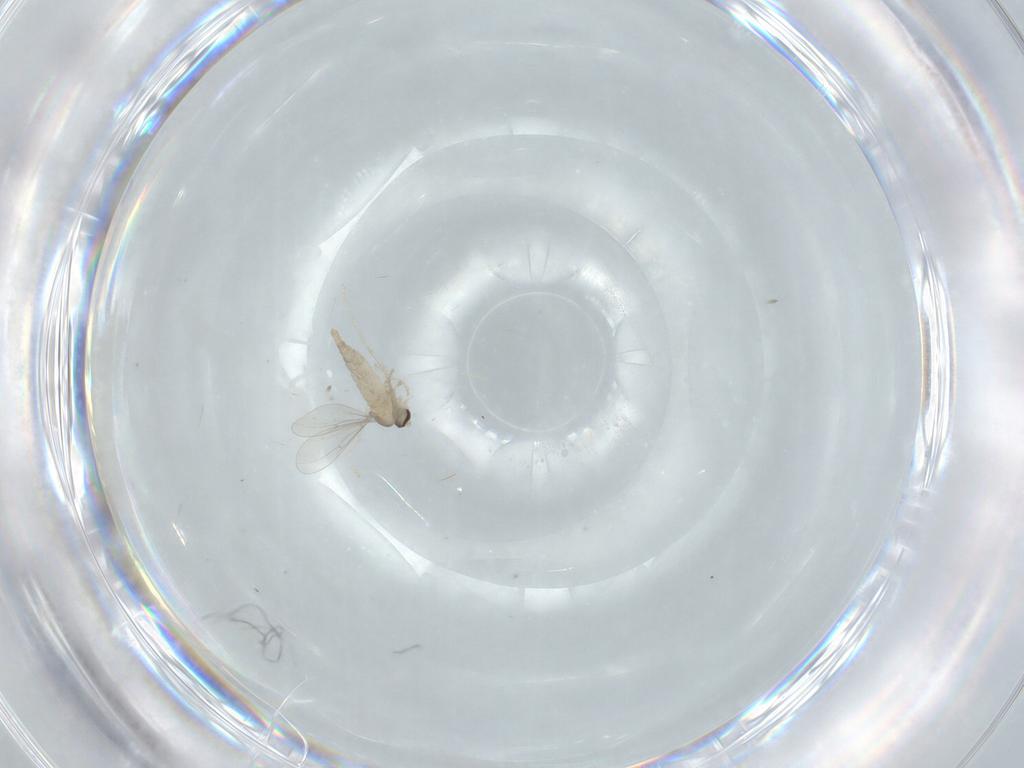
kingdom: Animalia
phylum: Arthropoda
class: Insecta
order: Diptera
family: Cecidomyiidae
